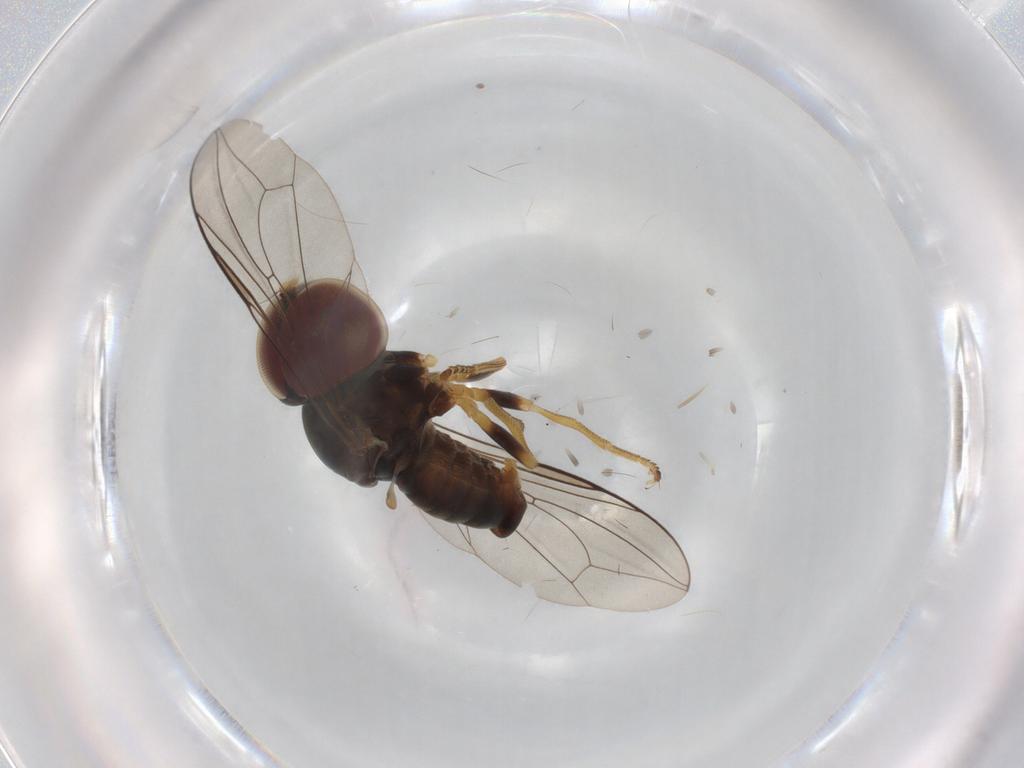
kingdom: Animalia
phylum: Arthropoda
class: Insecta
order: Diptera
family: Pipunculidae
